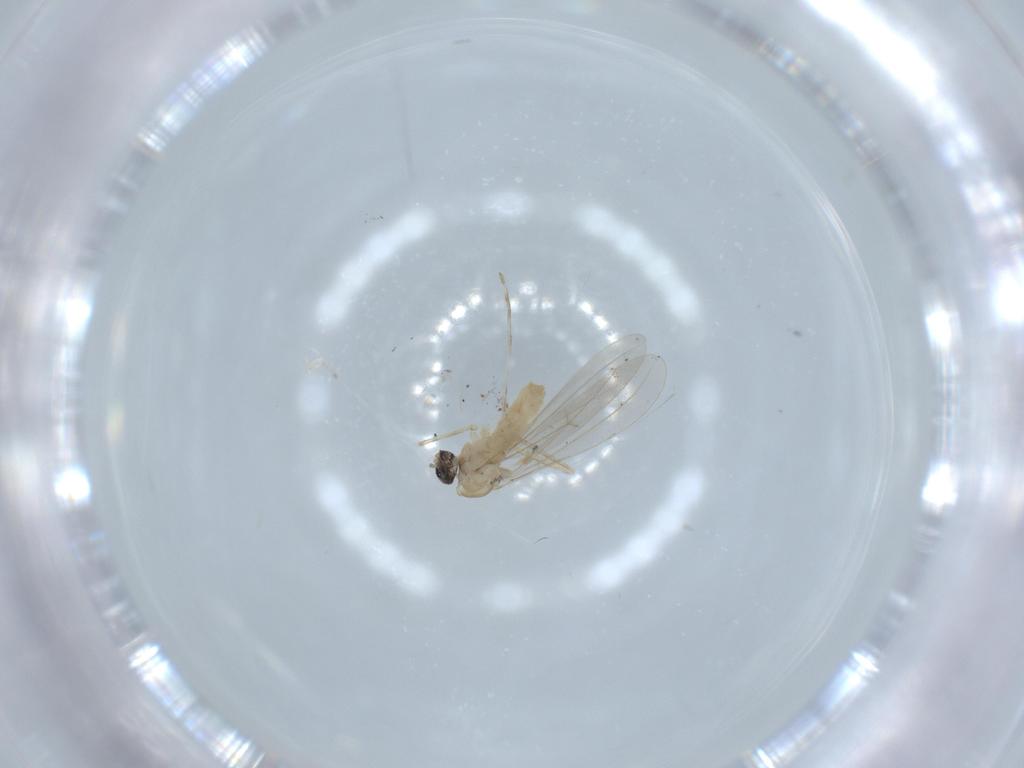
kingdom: Animalia
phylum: Arthropoda
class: Insecta
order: Diptera
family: Cecidomyiidae
